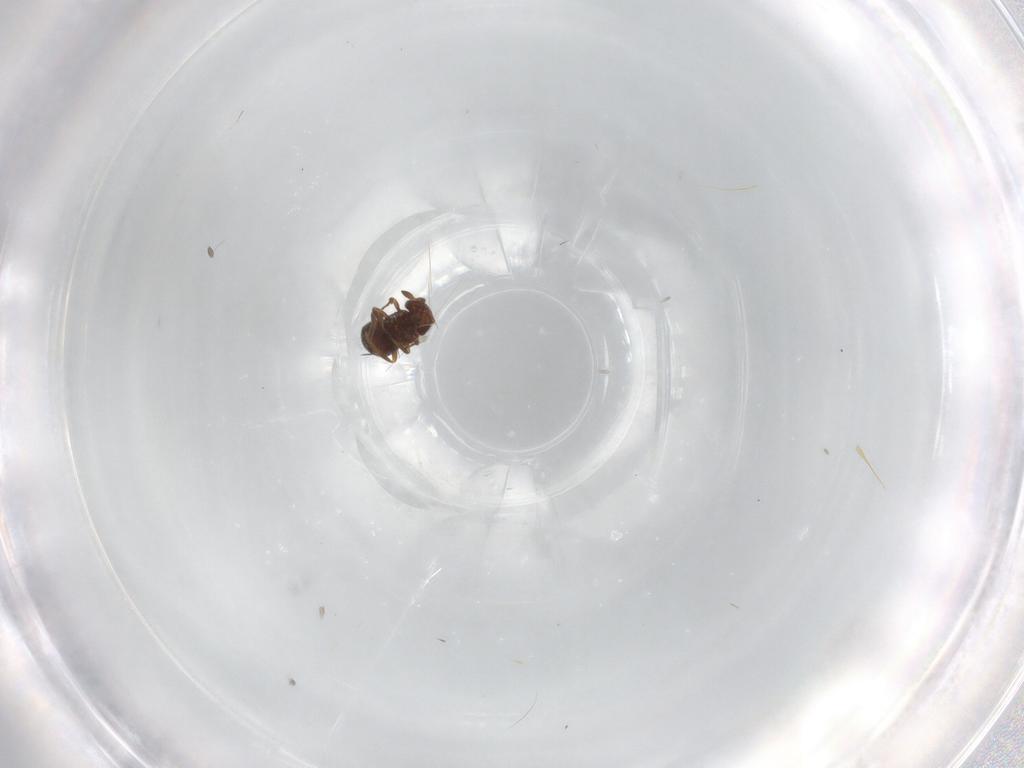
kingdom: Animalia
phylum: Arthropoda
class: Insecta
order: Hymenoptera
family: Scelionidae
